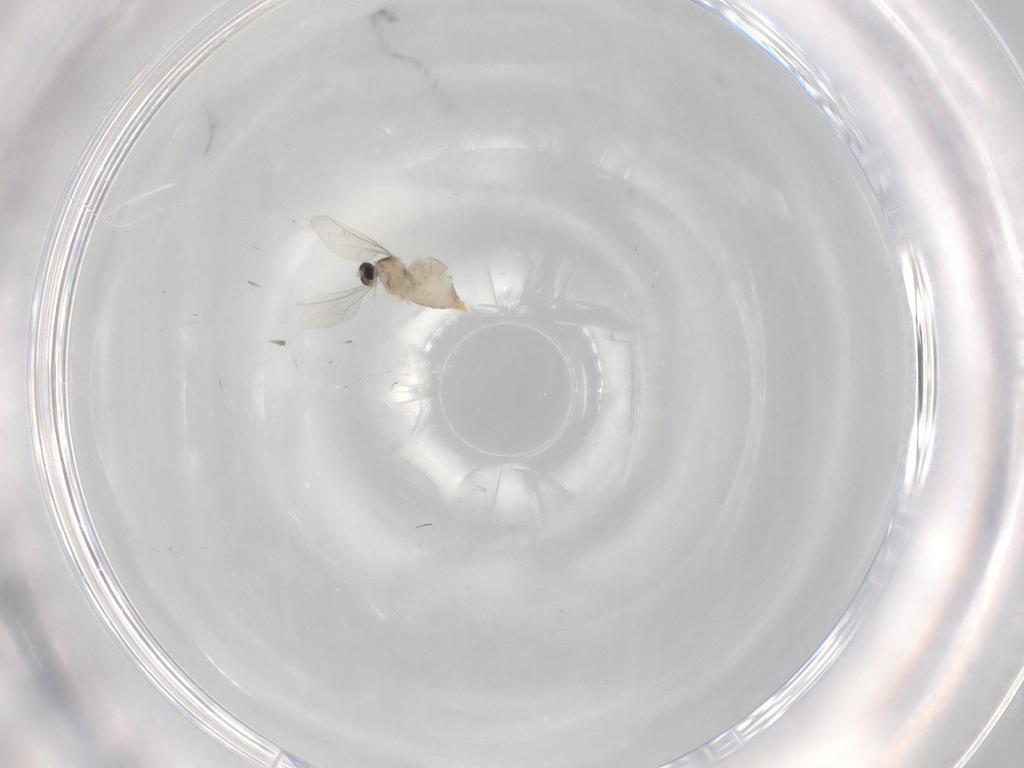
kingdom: Animalia
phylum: Arthropoda
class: Insecta
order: Diptera
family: Cecidomyiidae
